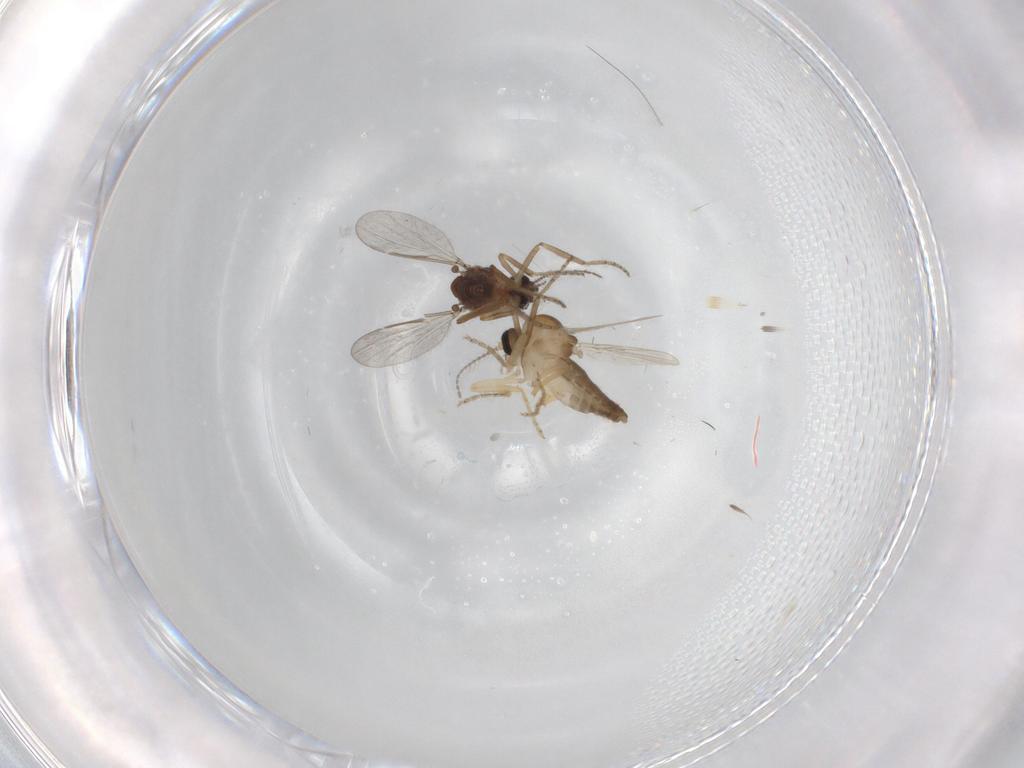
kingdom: Animalia
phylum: Arthropoda
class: Insecta
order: Diptera
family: Ceratopogonidae
